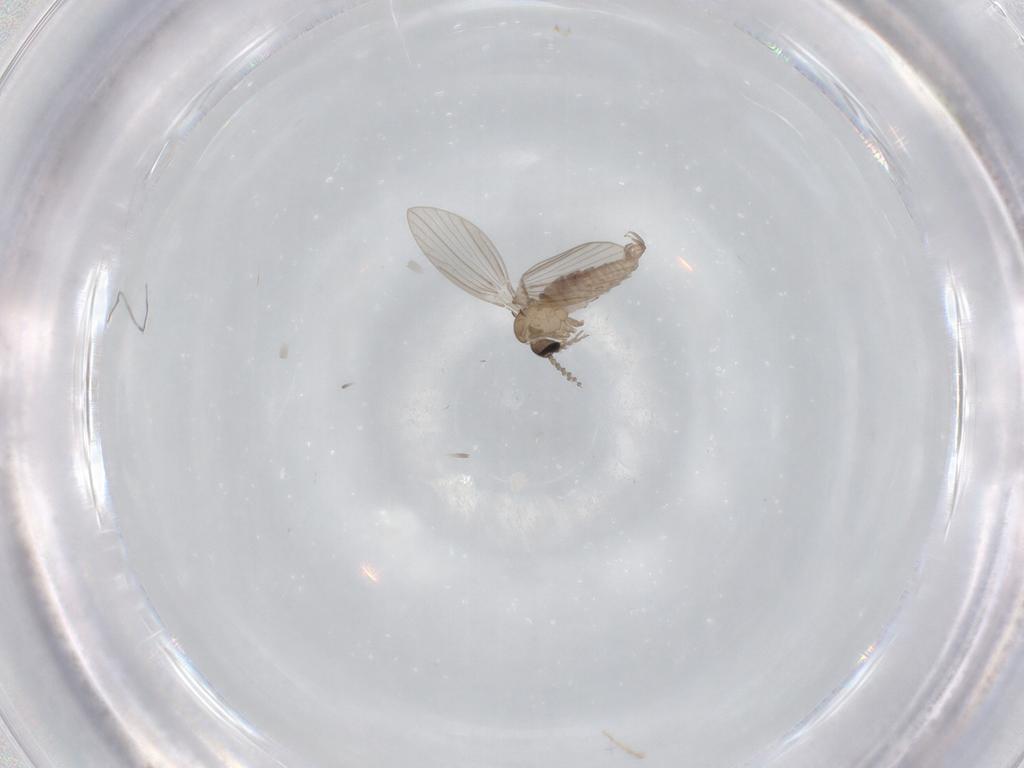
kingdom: Animalia
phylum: Arthropoda
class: Insecta
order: Diptera
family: Psychodidae
